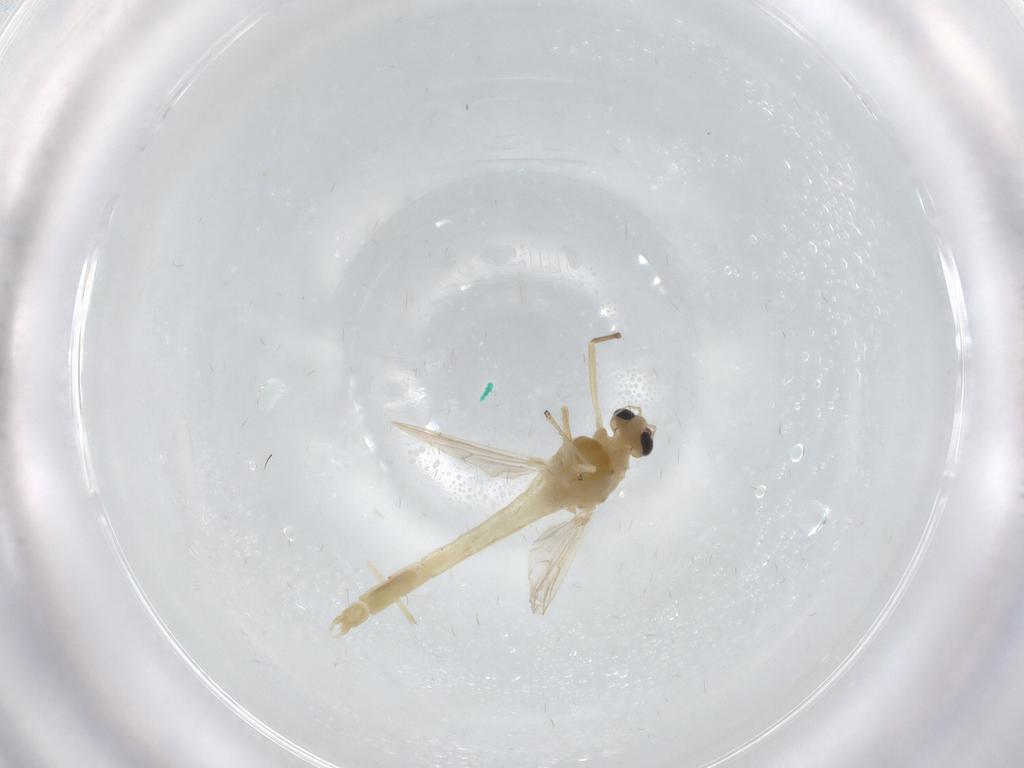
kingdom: Animalia
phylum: Arthropoda
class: Insecta
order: Diptera
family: Chironomidae
